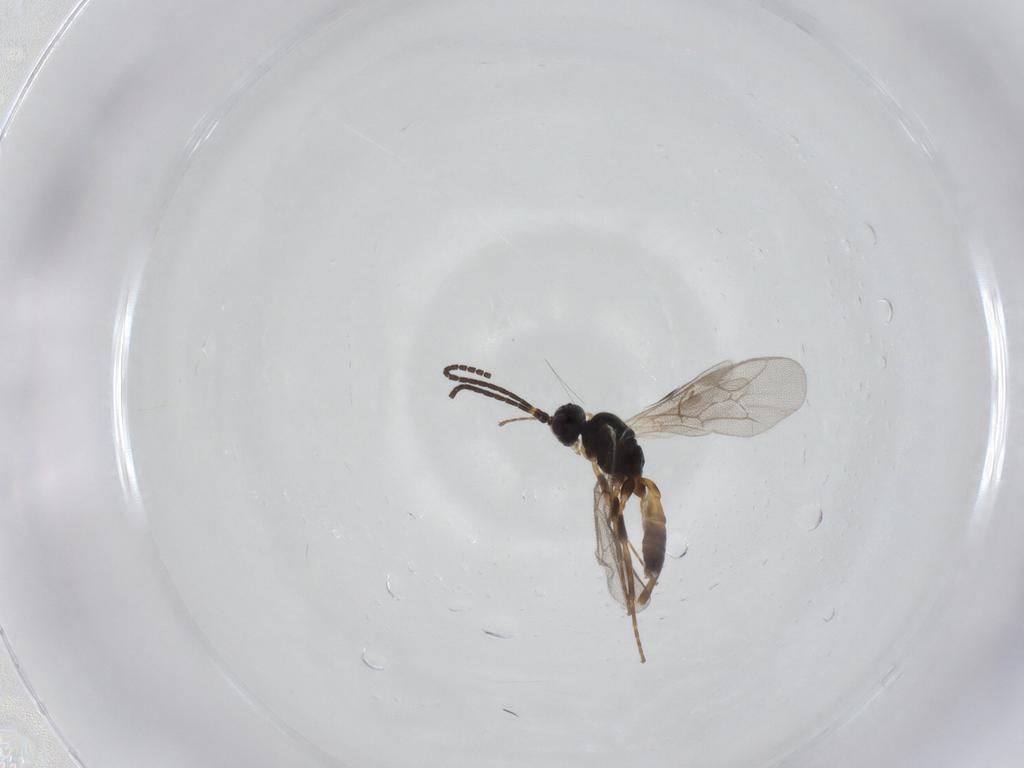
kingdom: Animalia
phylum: Arthropoda
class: Insecta
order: Hymenoptera
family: Ichneumonidae
